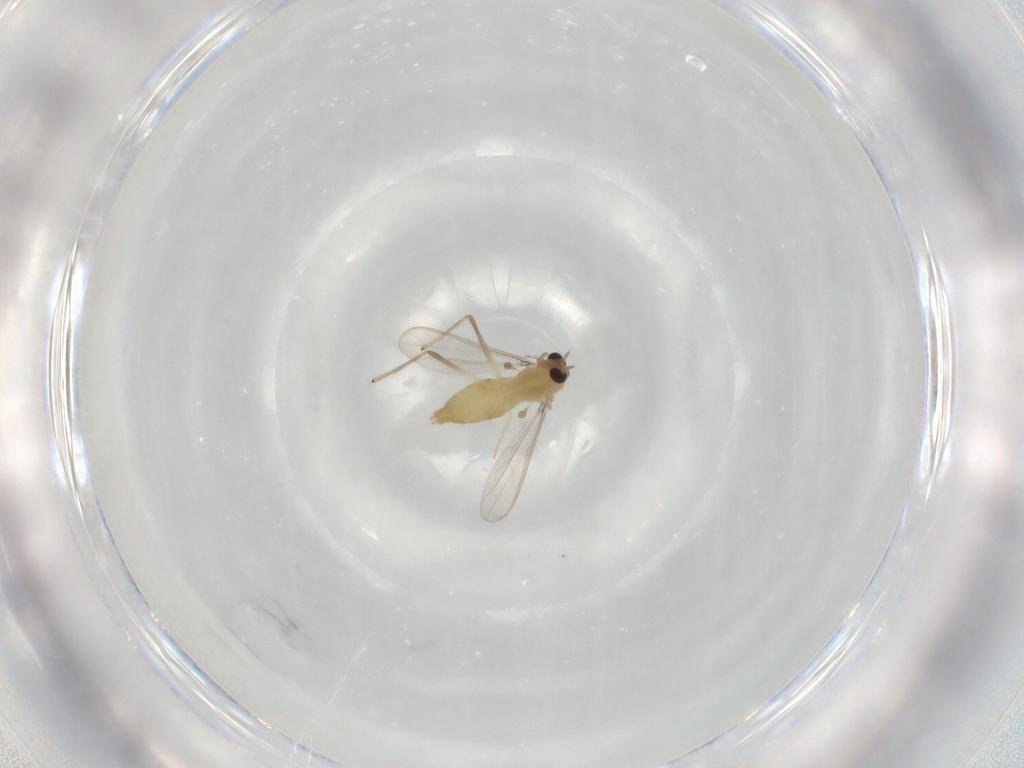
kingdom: Animalia
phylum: Arthropoda
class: Insecta
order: Diptera
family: Chironomidae
